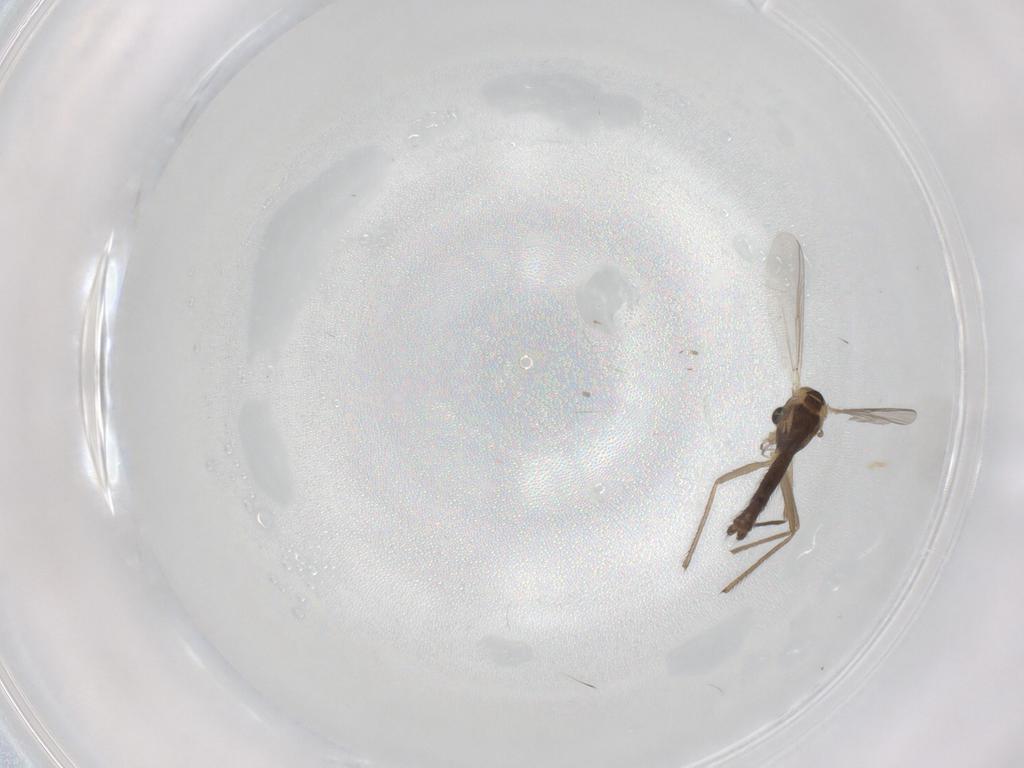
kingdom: Animalia
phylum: Arthropoda
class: Insecta
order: Diptera
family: Chironomidae
